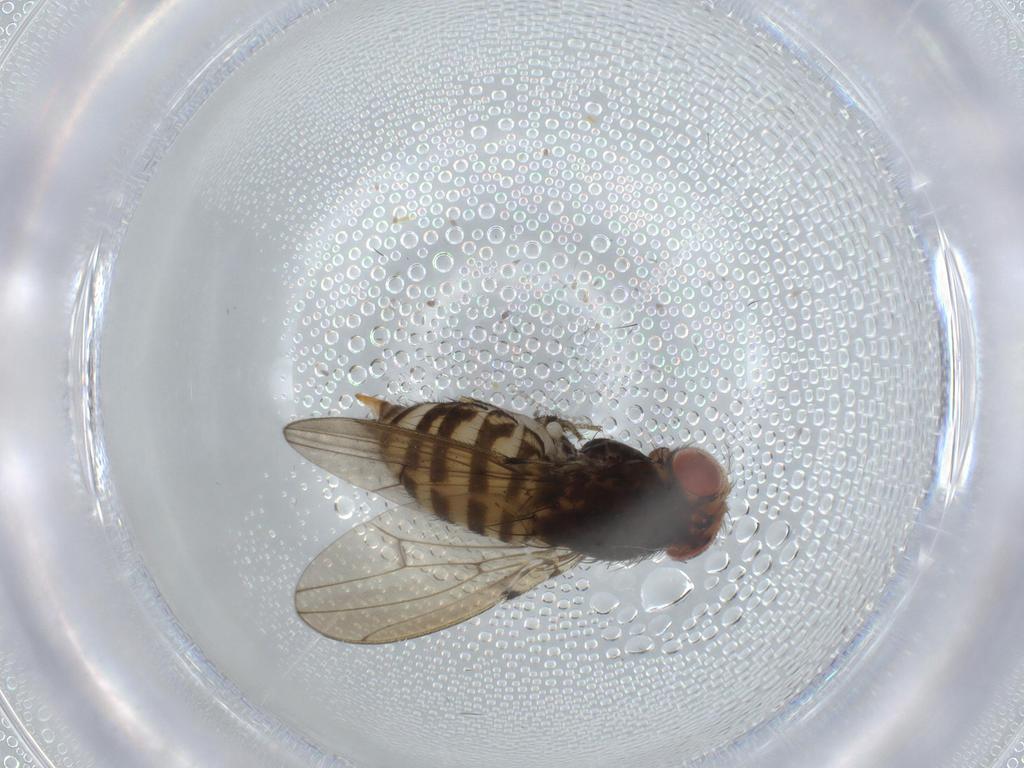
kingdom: Animalia
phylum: Arthropoda
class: Insecta
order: Diptera
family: Drosophilidae
